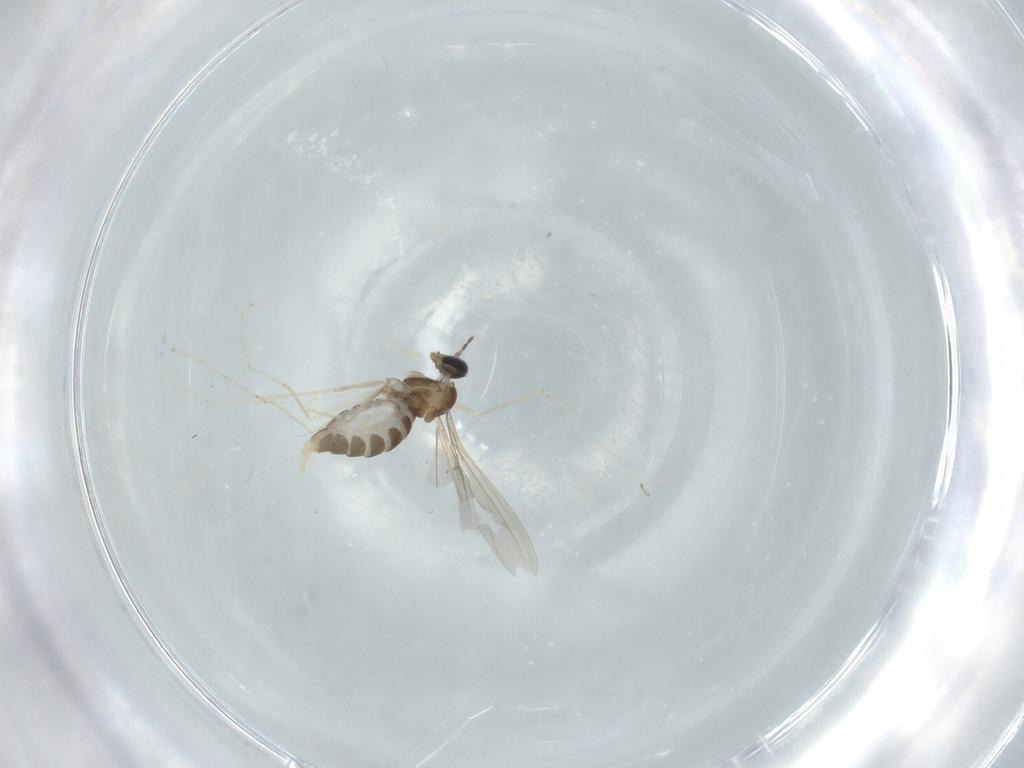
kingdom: Animalia
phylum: Arthropoda
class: Insecta
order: Diptera
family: Cecidomyiidae
